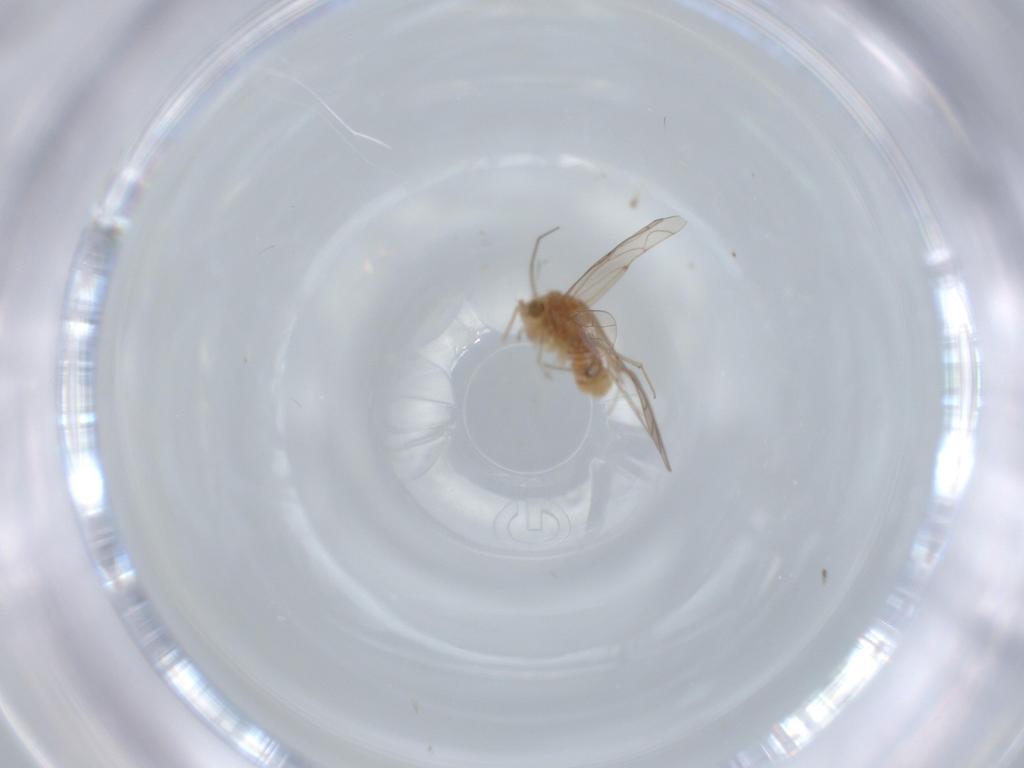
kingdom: Animalia
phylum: Arthropoda
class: Insecta
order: Psocodea
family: Lachesillidae
